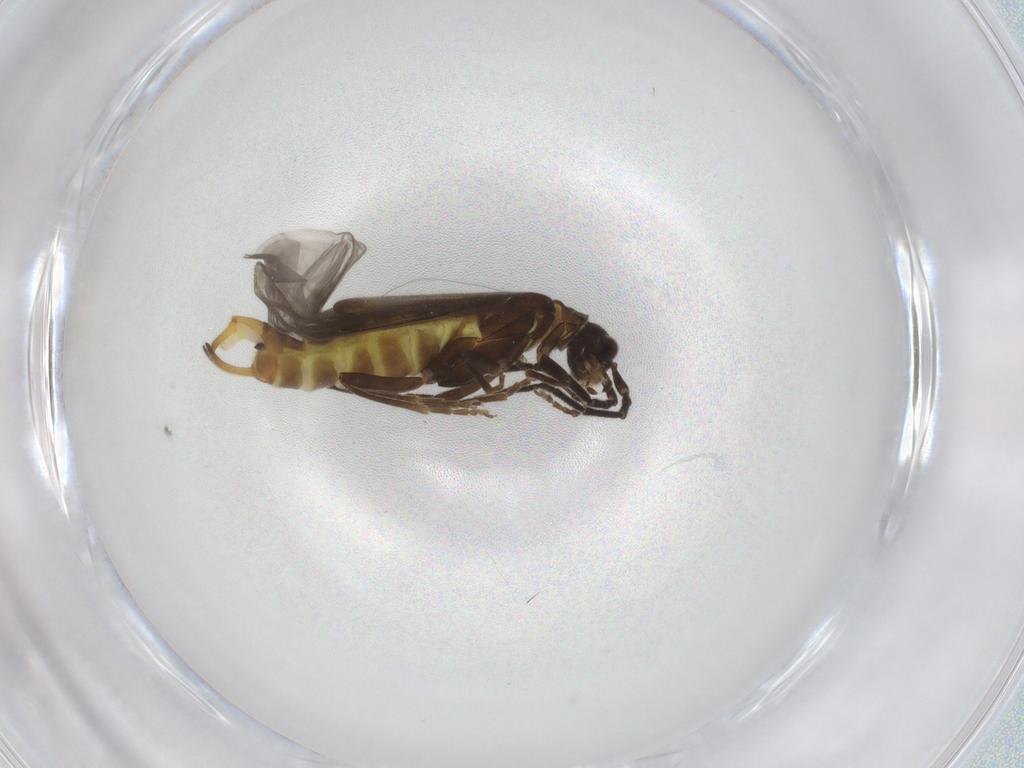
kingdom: Animalia
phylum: Arthropoda
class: Insecta
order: Coleoptera
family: Cantharidae
